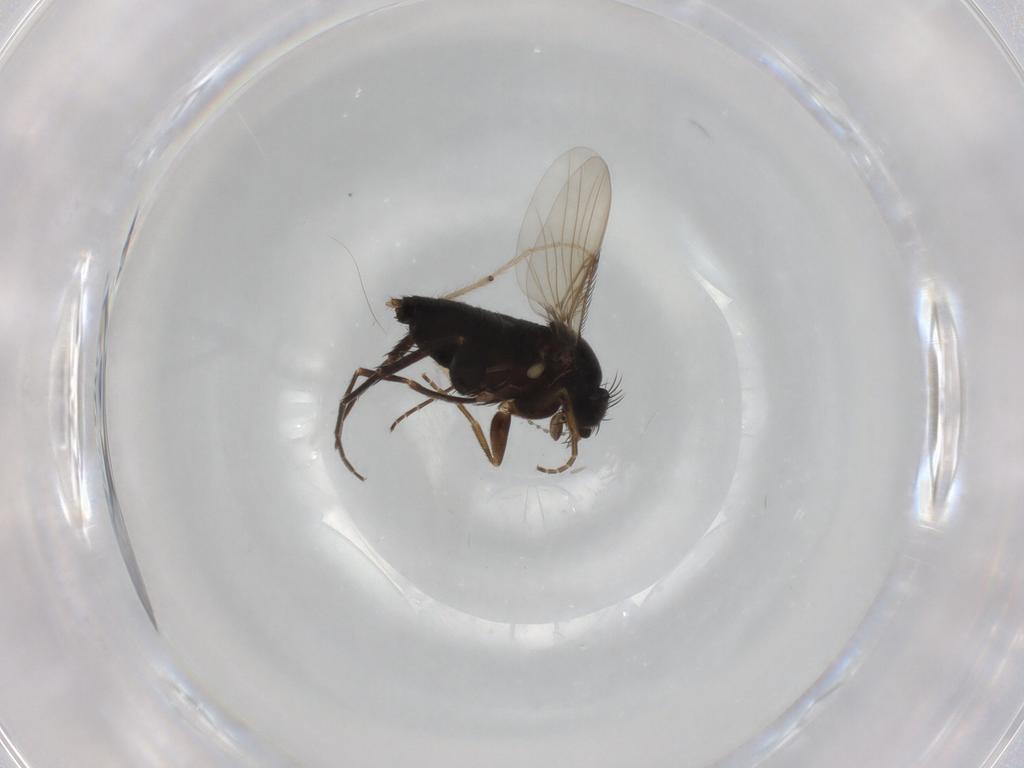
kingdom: Animalia
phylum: Arthropoda
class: Insecta
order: Diptera
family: Phoridae
